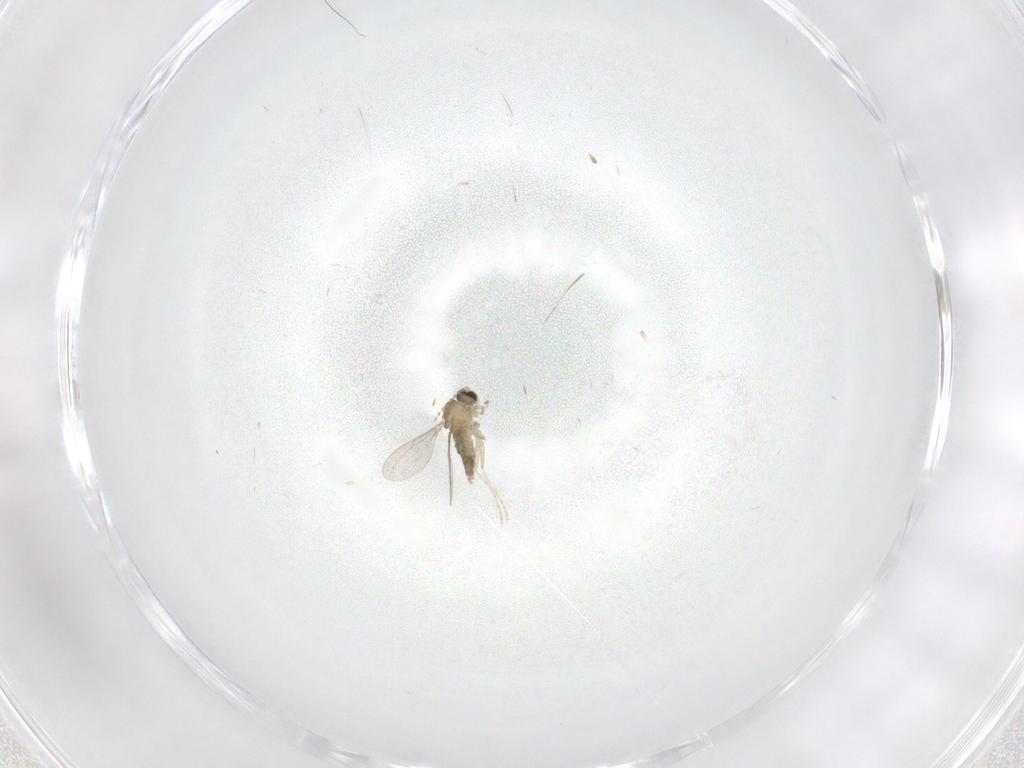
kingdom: Animalia
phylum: Arthropoda
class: Insecta
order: Diptera
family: Cecidomyiidae
